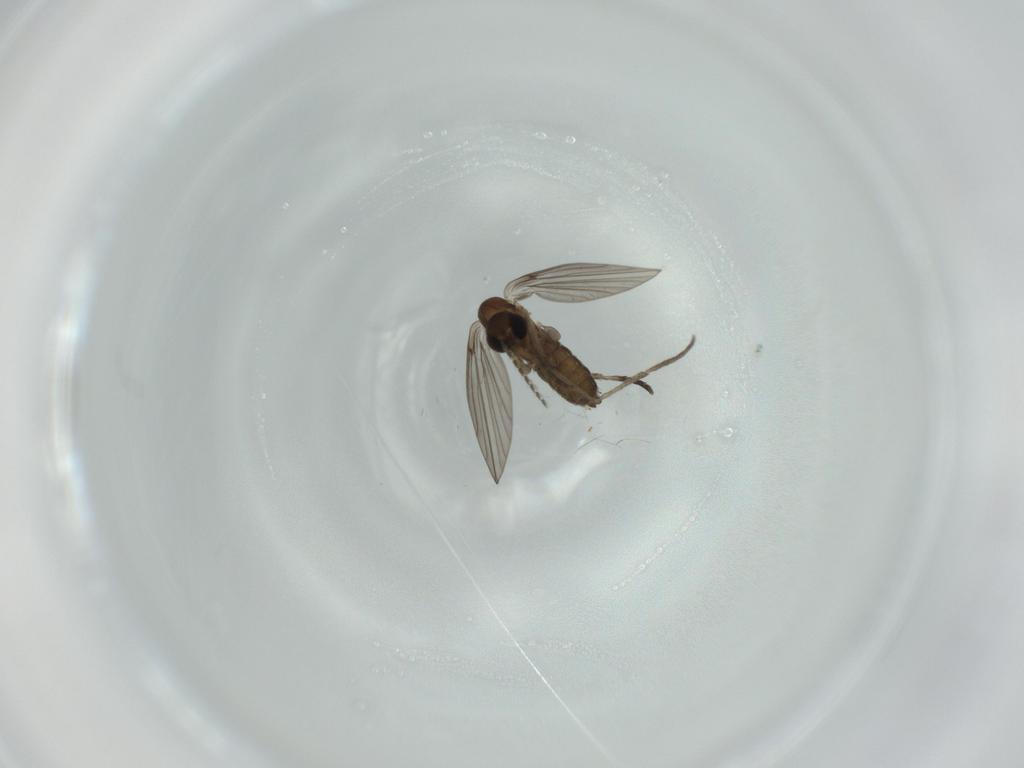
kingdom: Animalia
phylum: Arthropoda
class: Insecta
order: Diptera
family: Psychodidae
